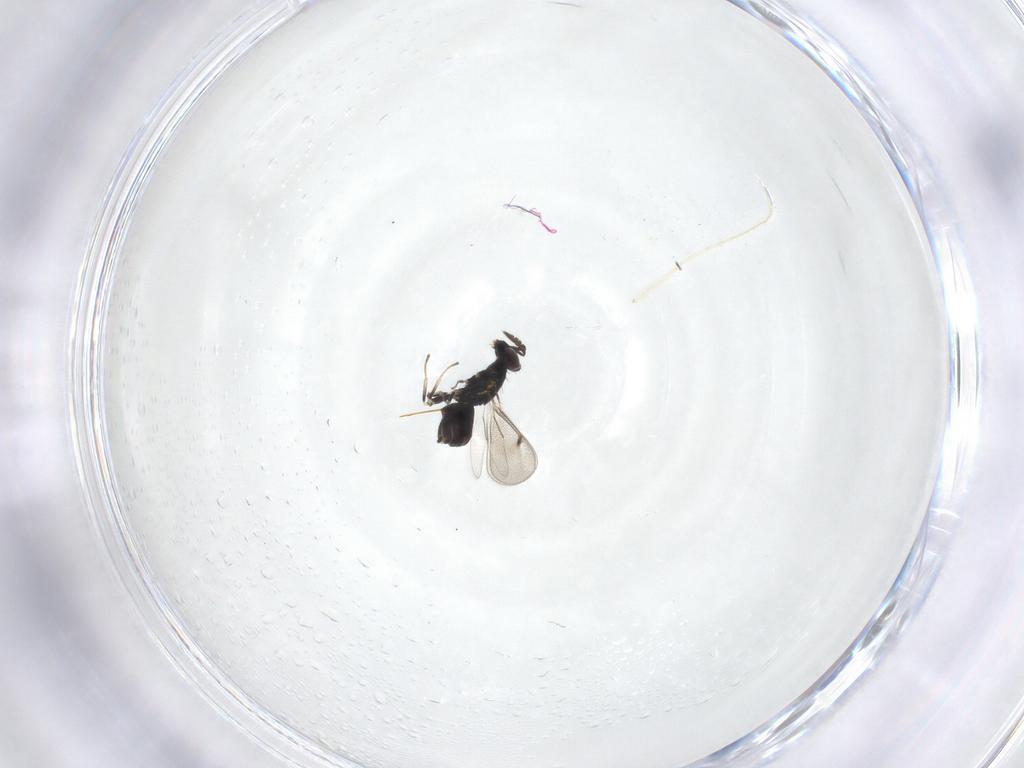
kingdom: Animalia
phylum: Arthropoda
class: Insecta
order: Hymenoptera
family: Eulophidae
